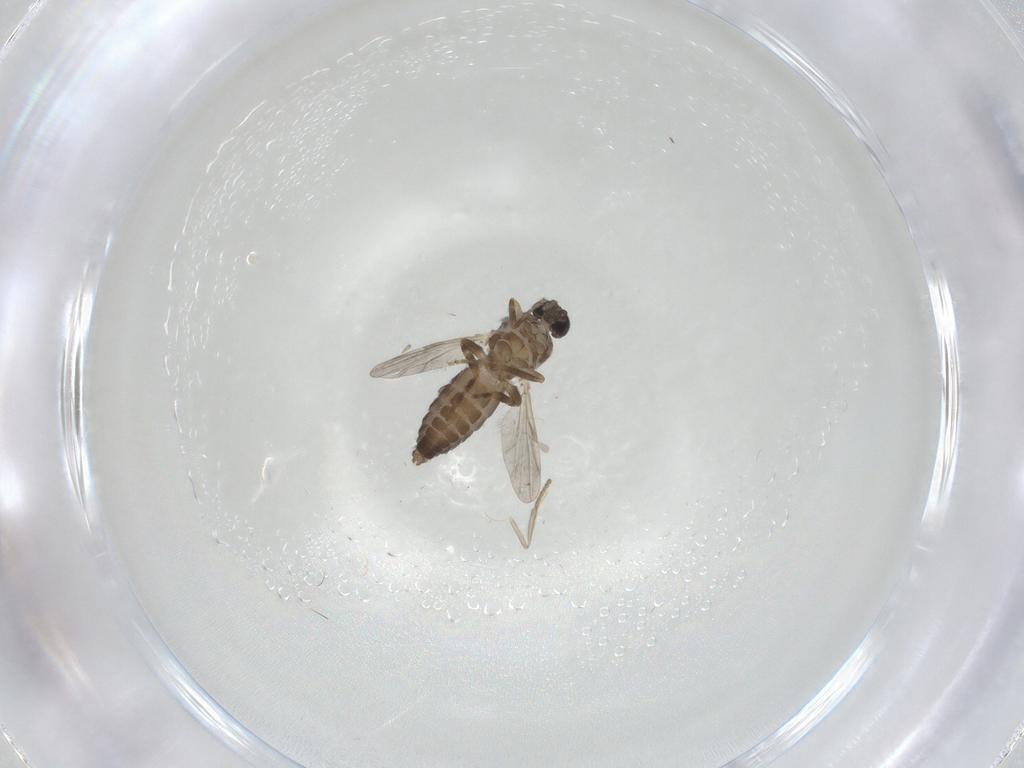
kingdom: Animalia
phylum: Arthropoda
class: Insecta
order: Diptera
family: Ceratopogonidae
